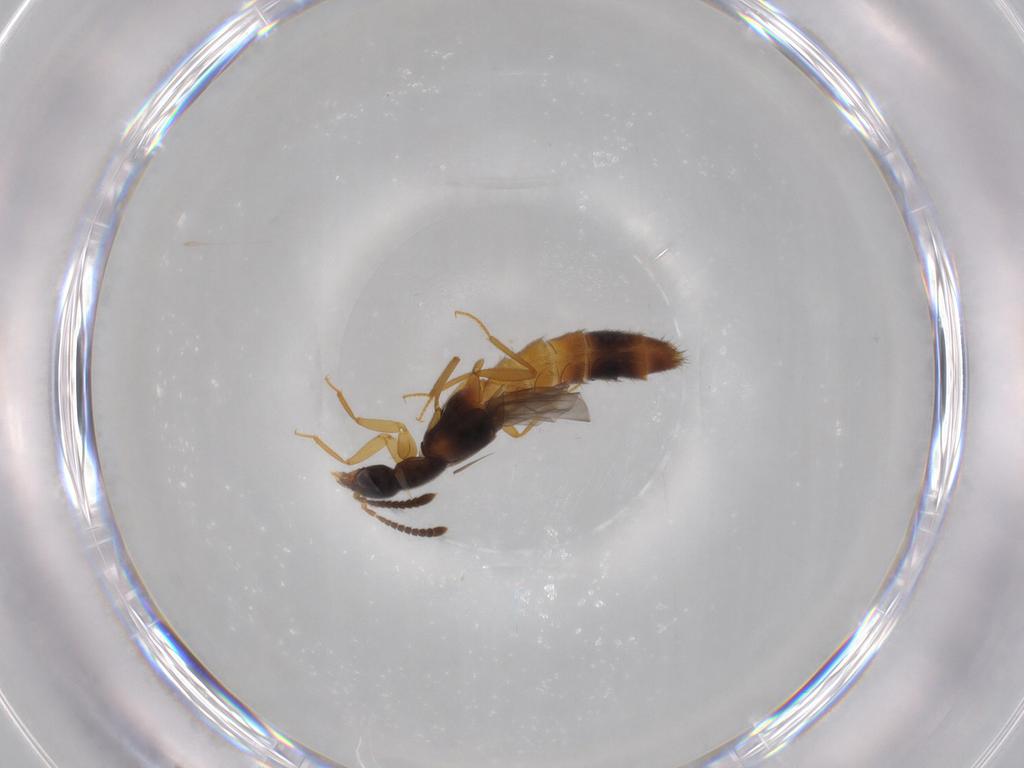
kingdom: Animalia
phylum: Arthropoda
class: Insecta
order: Coleoptera
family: Staphylinidae
